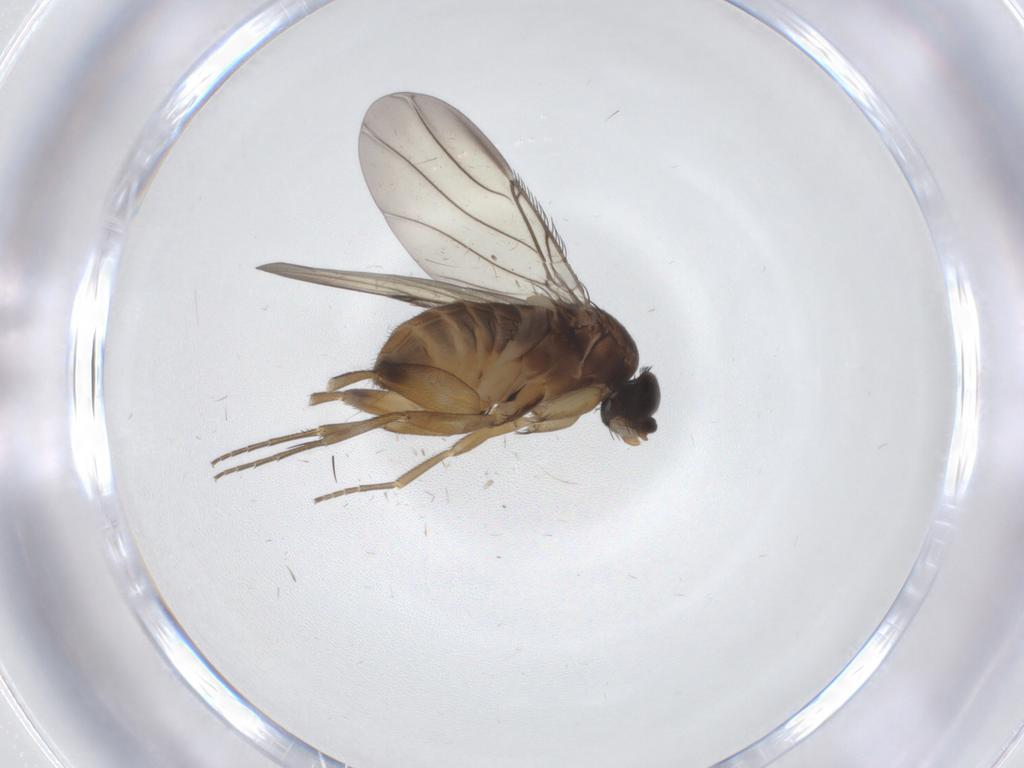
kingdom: Animalia
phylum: Arthropoda
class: Insecta
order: Diptera
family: Phoridae
